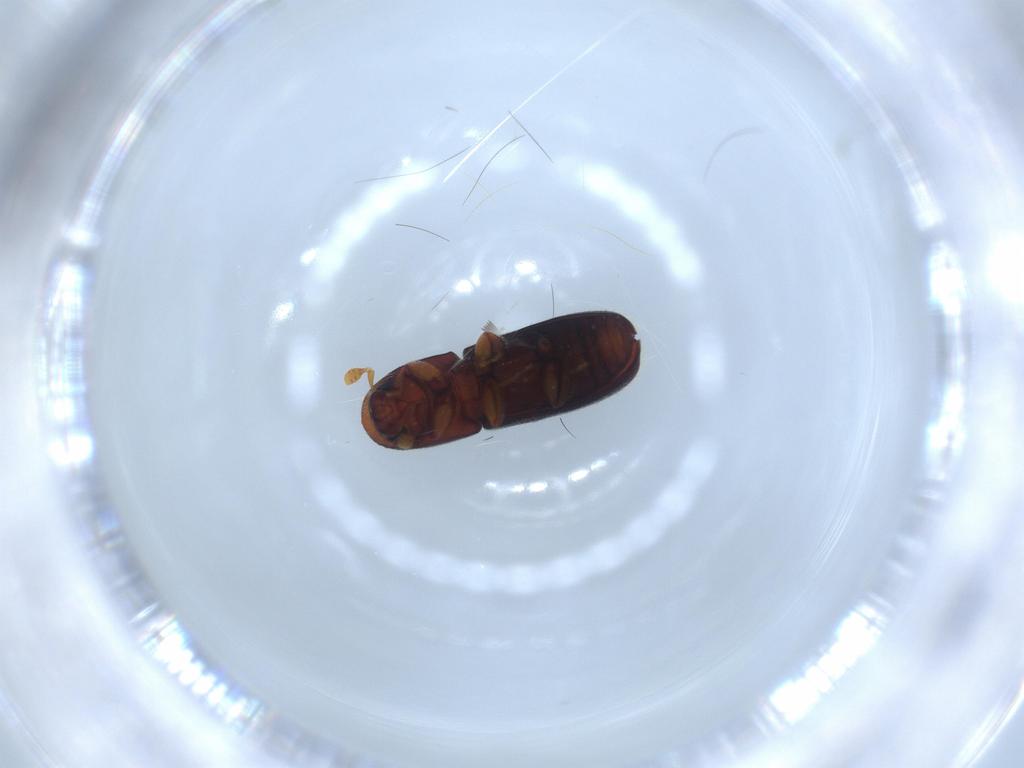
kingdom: Animalia
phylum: Arthropoda
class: Insecta
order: Coleoptera
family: Curculionidae
